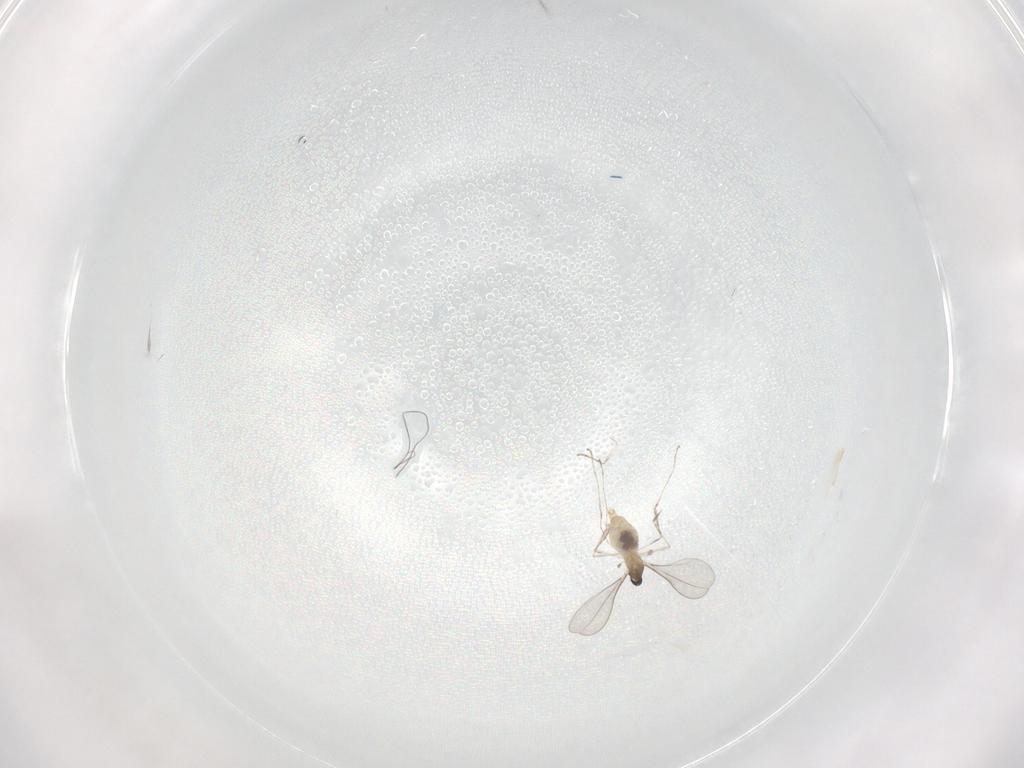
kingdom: Animalia
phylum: Arthropoda
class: Insecta
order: Diptera
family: Cecidomyiidae
